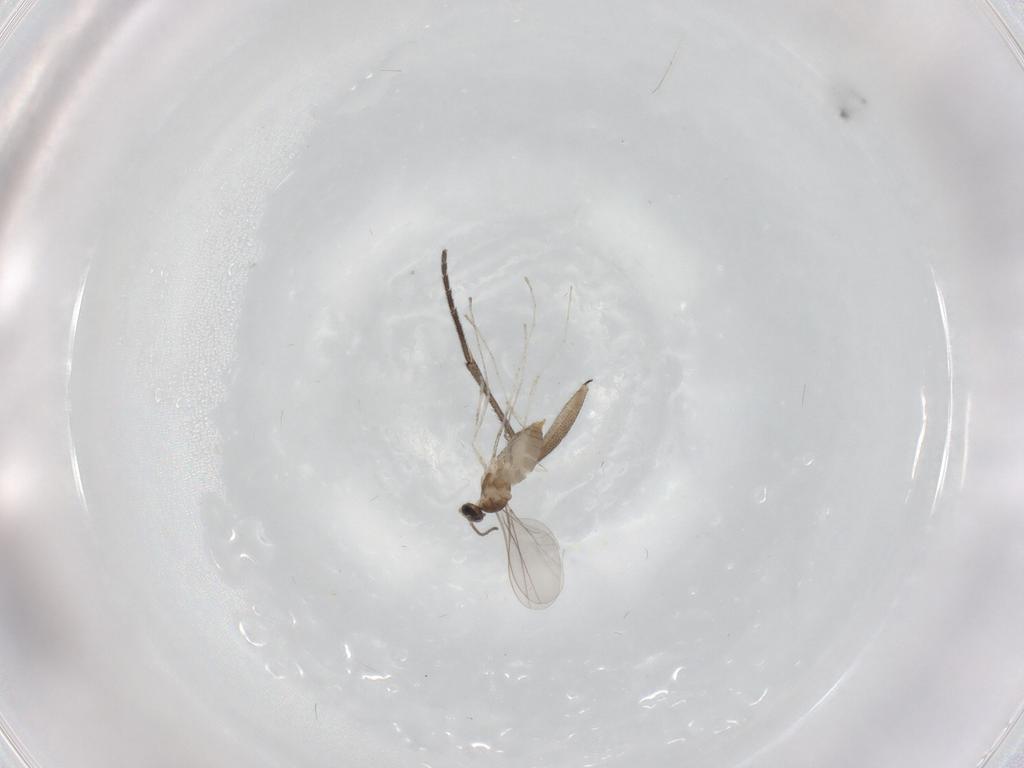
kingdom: Animalia
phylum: Arthropoda
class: Insecta
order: Diptera
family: Cecidomyiidae
